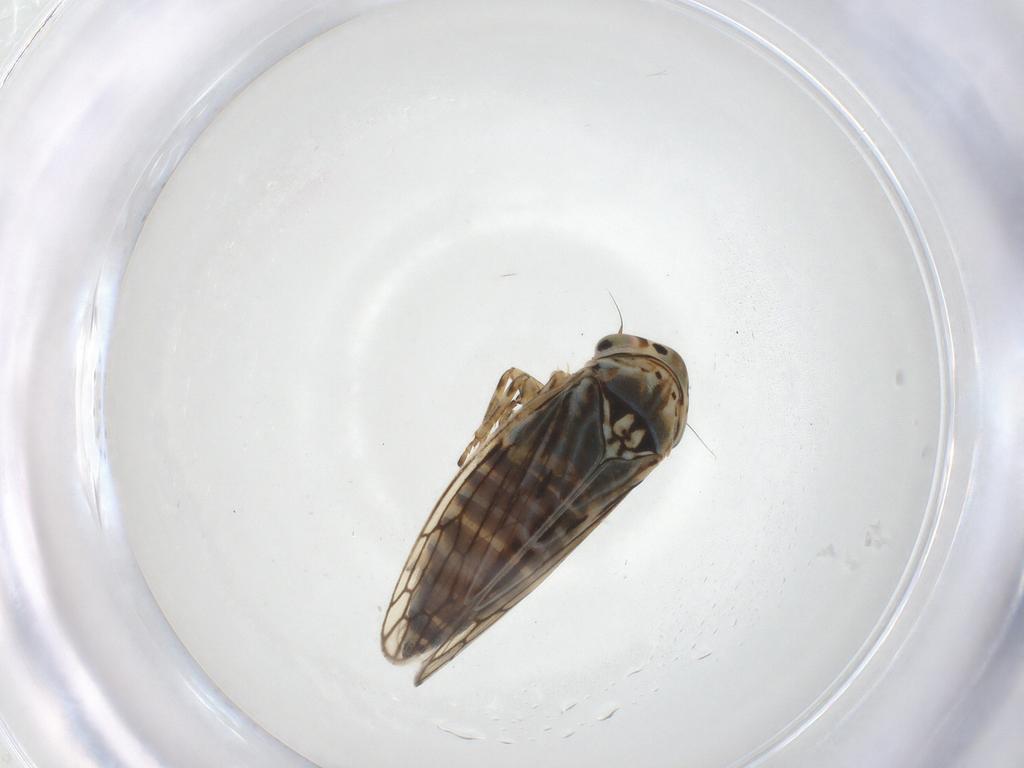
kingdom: Animalia
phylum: Arthropoda
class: Insecta
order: Hemiptera
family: Cicadellidae
